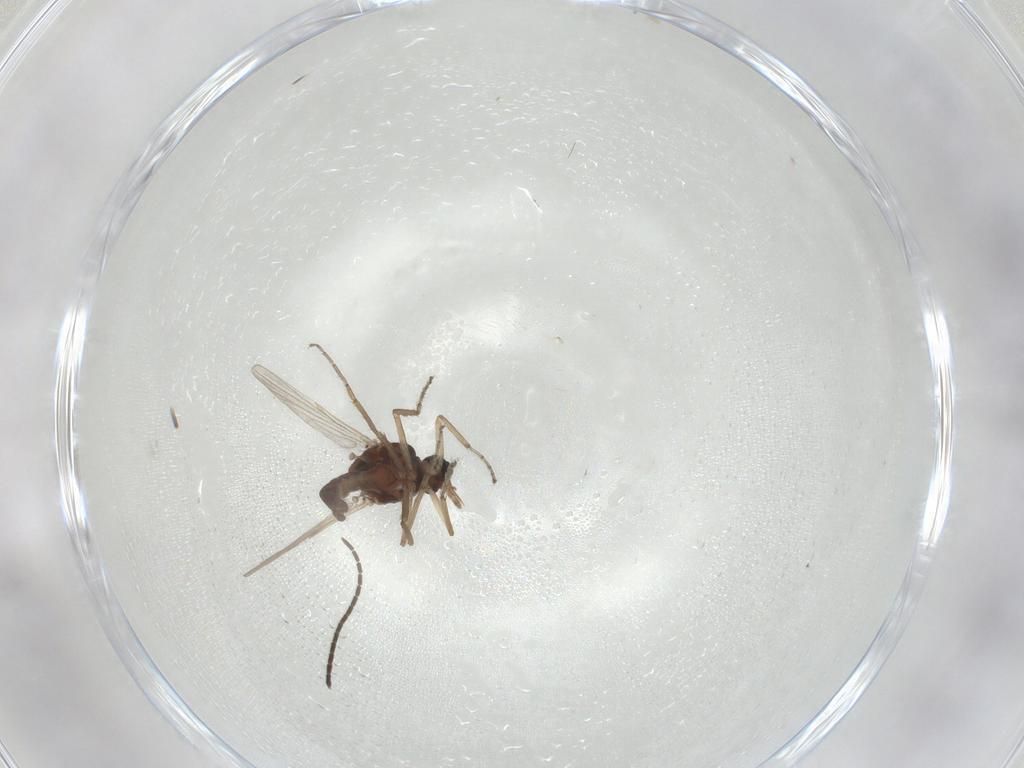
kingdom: Animalia
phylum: Arthropoda
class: Insecta
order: Diptera
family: Ceratopogonidae
